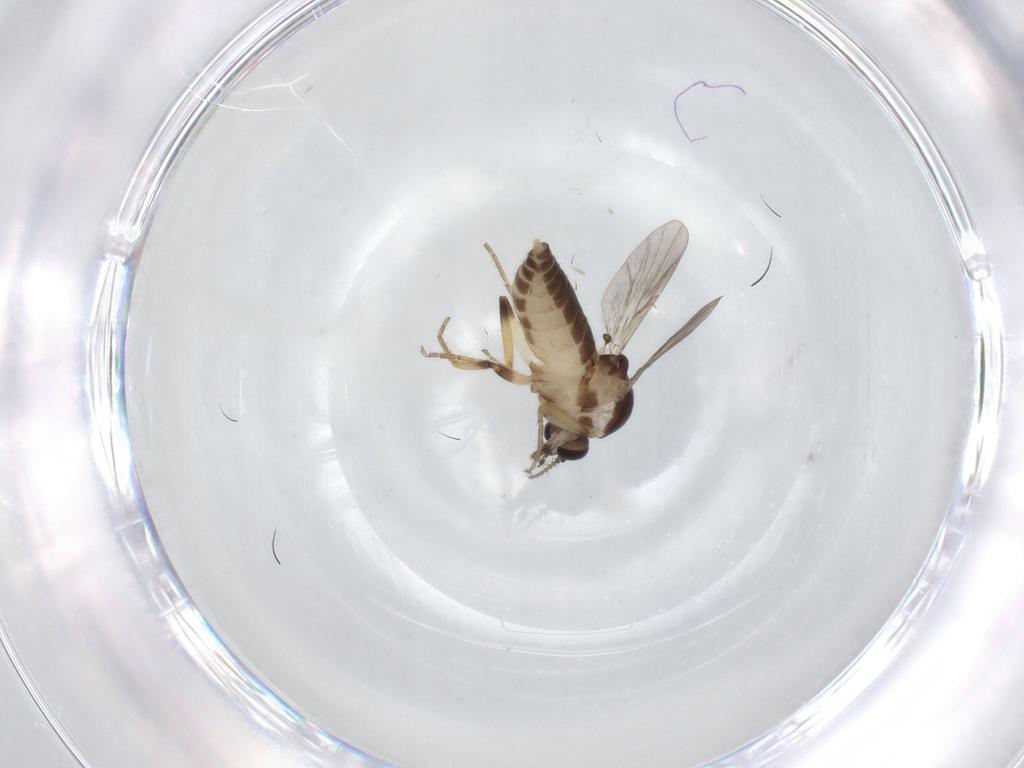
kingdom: Animalia
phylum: Arthropoda
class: Insecta
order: Diptera
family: Ceratopogonidae
